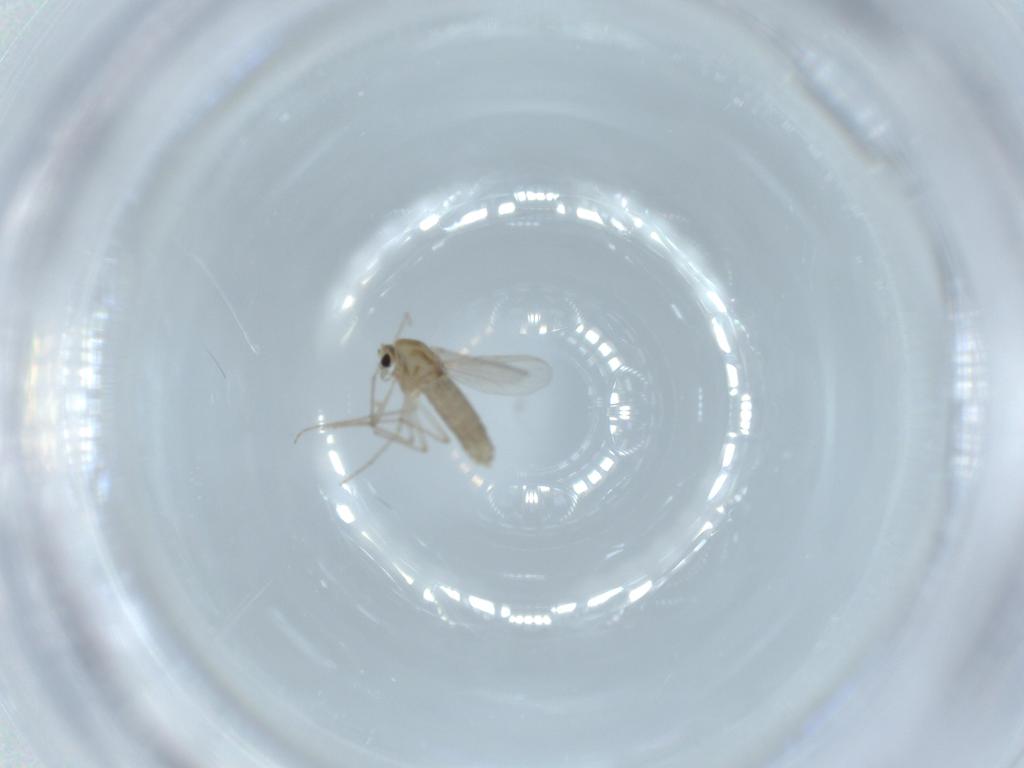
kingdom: Animalia
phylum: Arthropoda
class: Insecta
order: Diptera
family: Chironomidae
